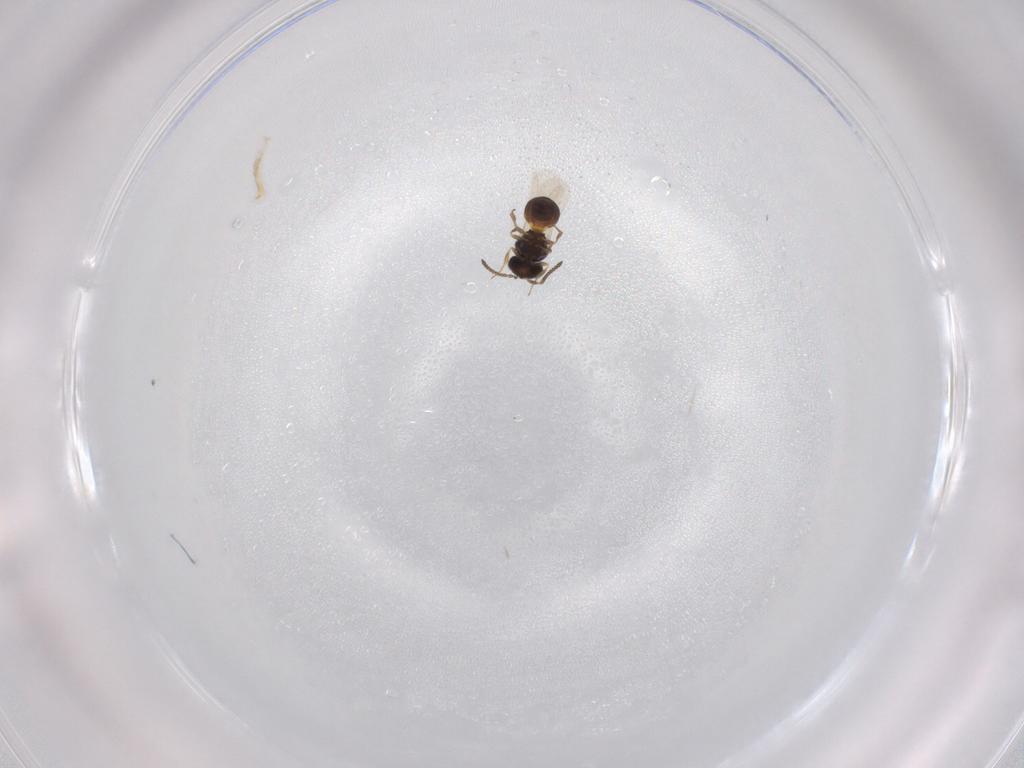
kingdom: Animalia
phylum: Arthropoda
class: Insecta
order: Hymenoptera
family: Scelionidae
